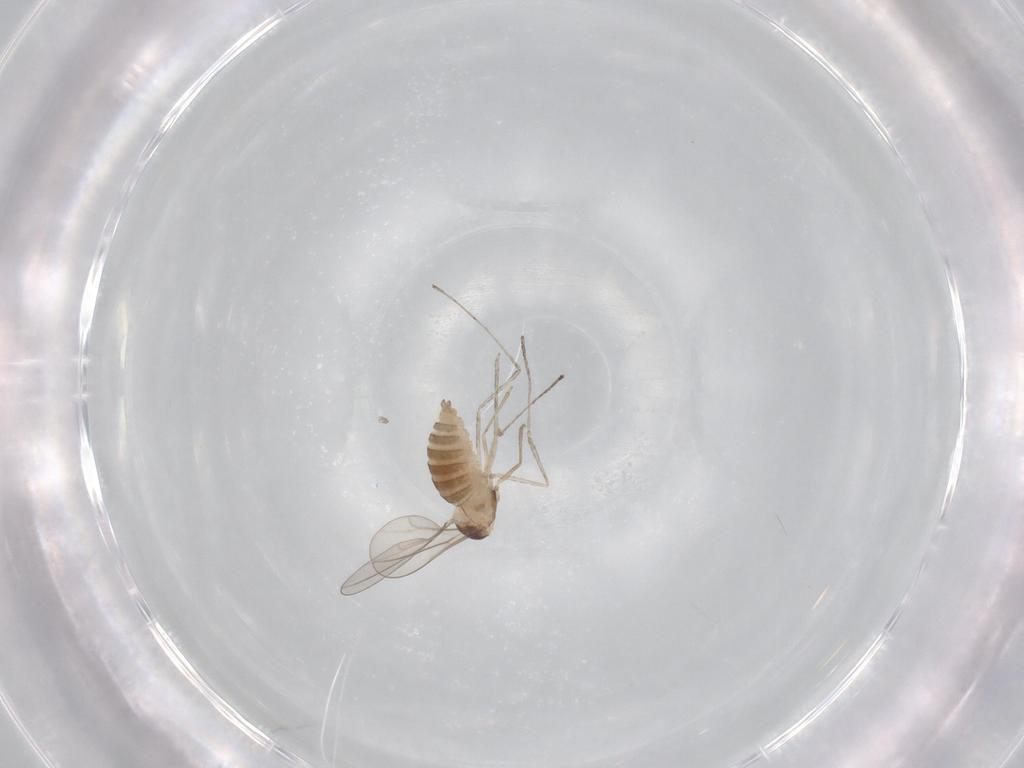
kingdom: Animalia
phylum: Arthropoda
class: Insecta
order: Diptera
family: Cecidomyiidae
